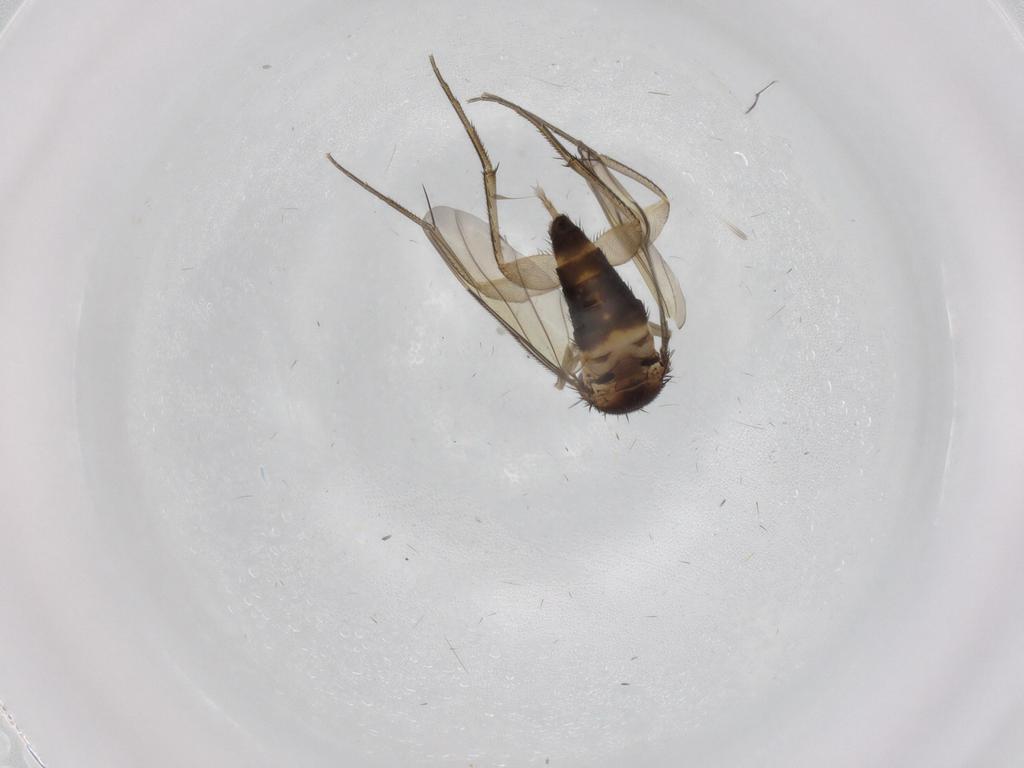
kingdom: Animalia
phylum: Arthropoda
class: Insecta
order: Diptera
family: Phoridae
